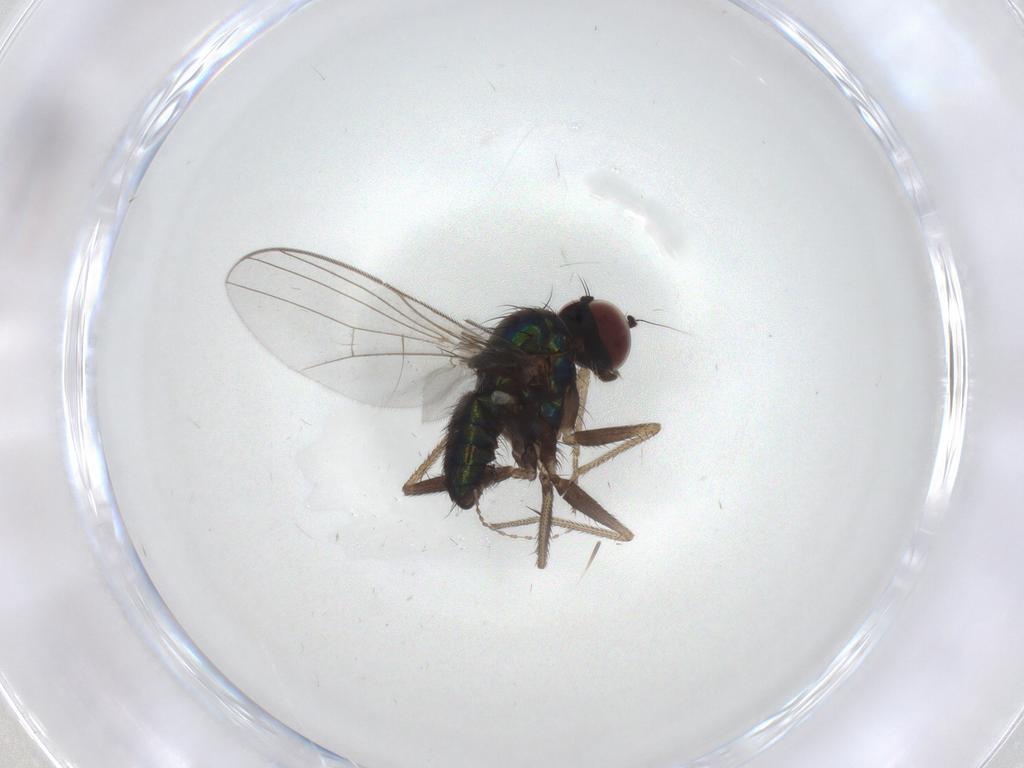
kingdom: Animalia
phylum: Arthropoda
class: Insecta
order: Diptera
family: Dolichopodidae
